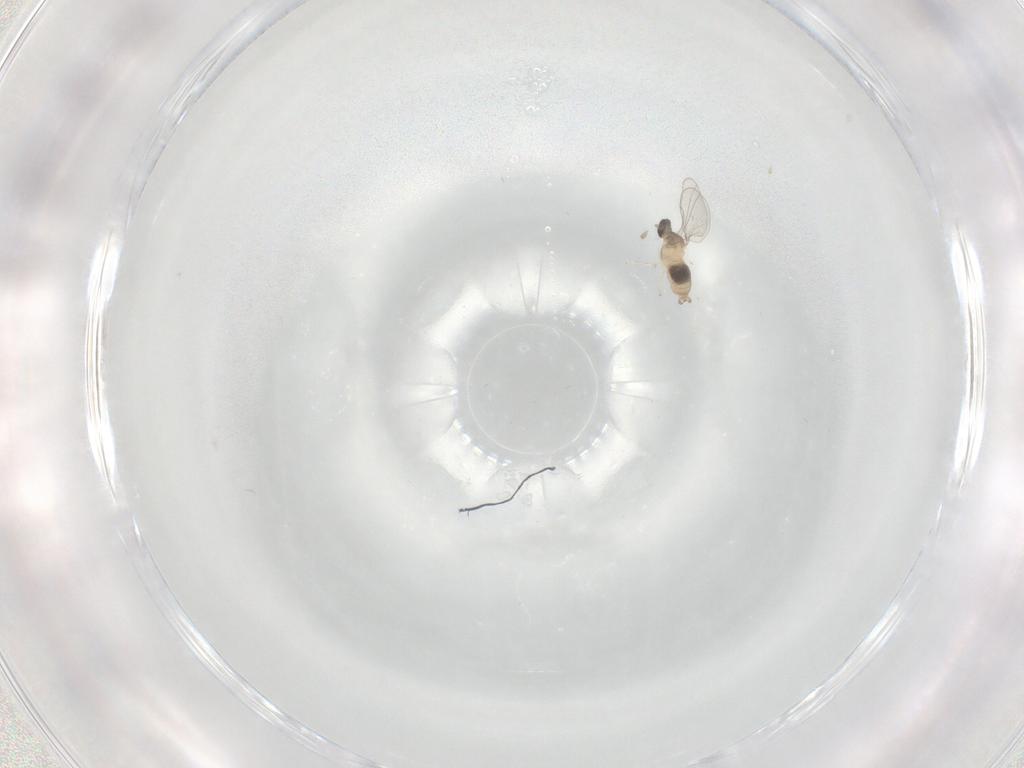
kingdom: Animalia
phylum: Arthropoda
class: Insecta
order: Diptera
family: Cecidomyiidae
